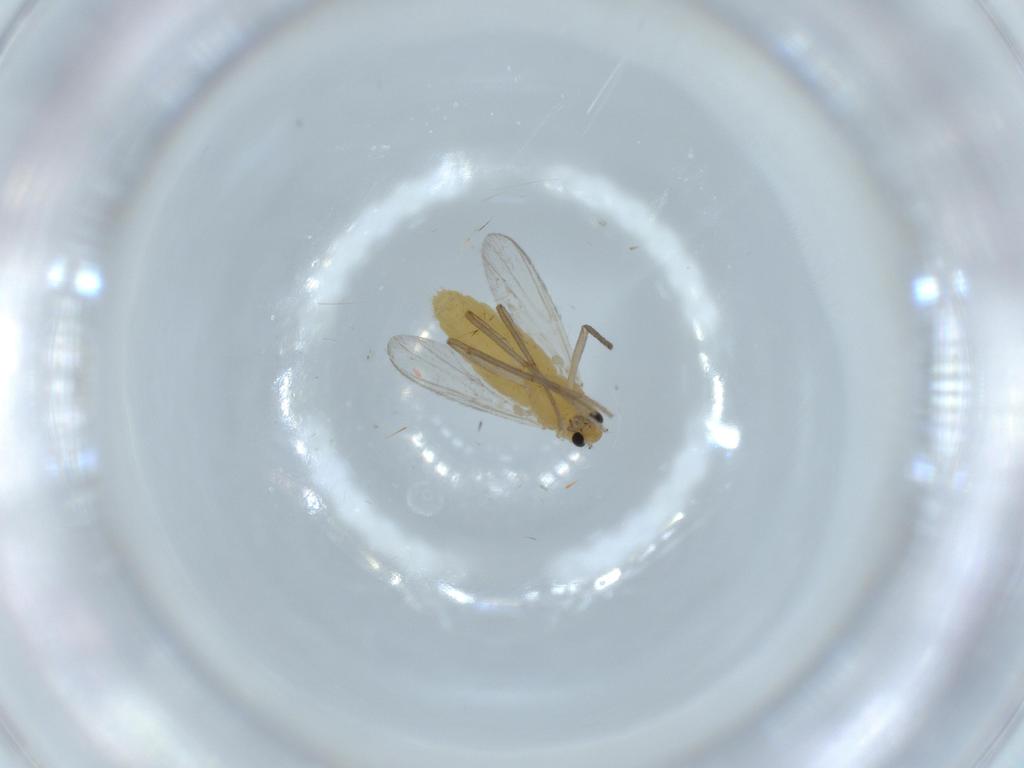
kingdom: Animalia
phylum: Arthropoda
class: Insecta
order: Diptera
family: Chironomidae
